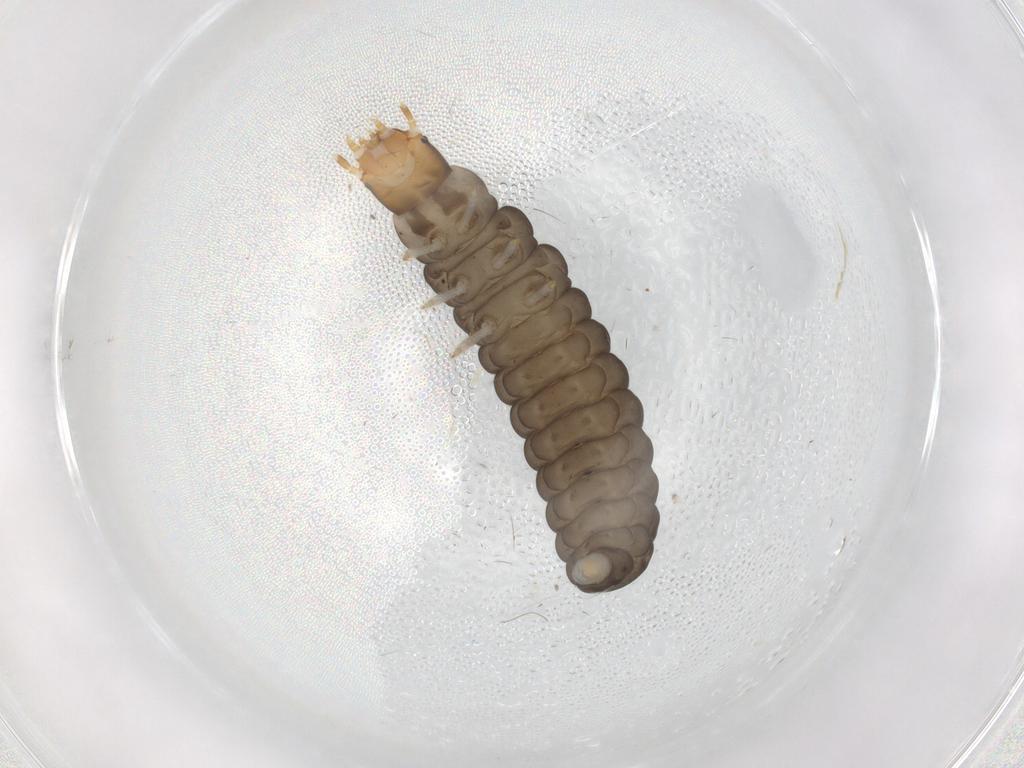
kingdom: Animalia
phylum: Arthropoda
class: Insecta
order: Coleoptera
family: Cantharidae
